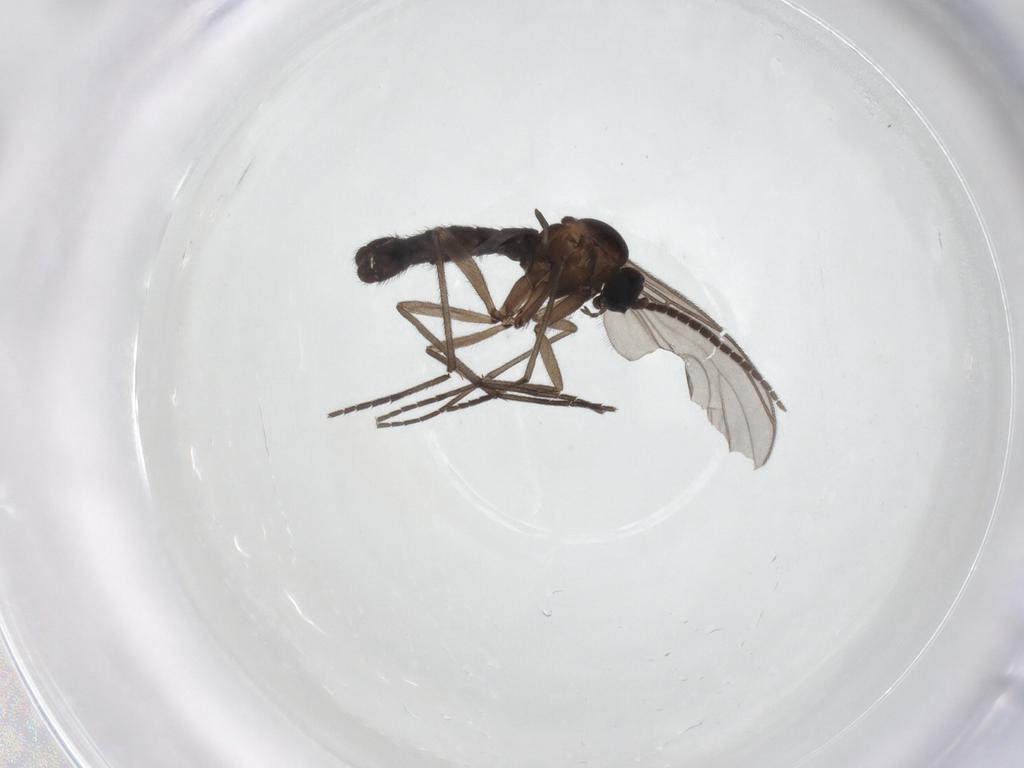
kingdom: Animalia
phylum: Arthropoda
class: Insecta
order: Diptera
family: Sciaridae
